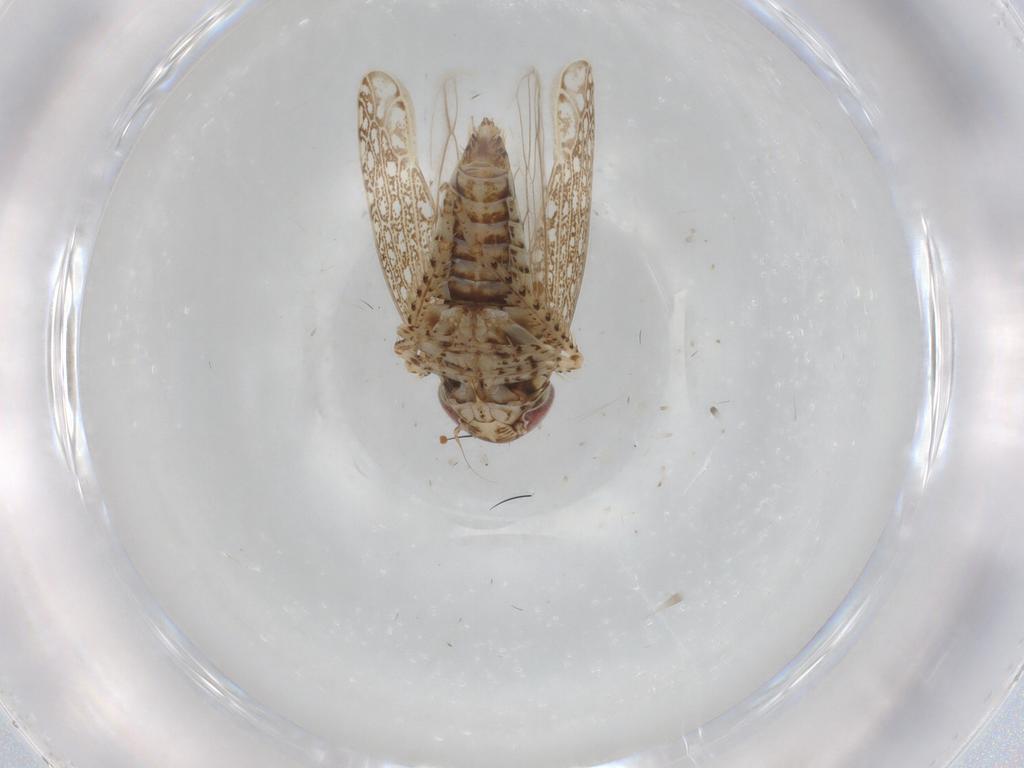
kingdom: Animalia
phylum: Arthropoda
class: Insecta
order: Hemiptera
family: Cicadellidae
